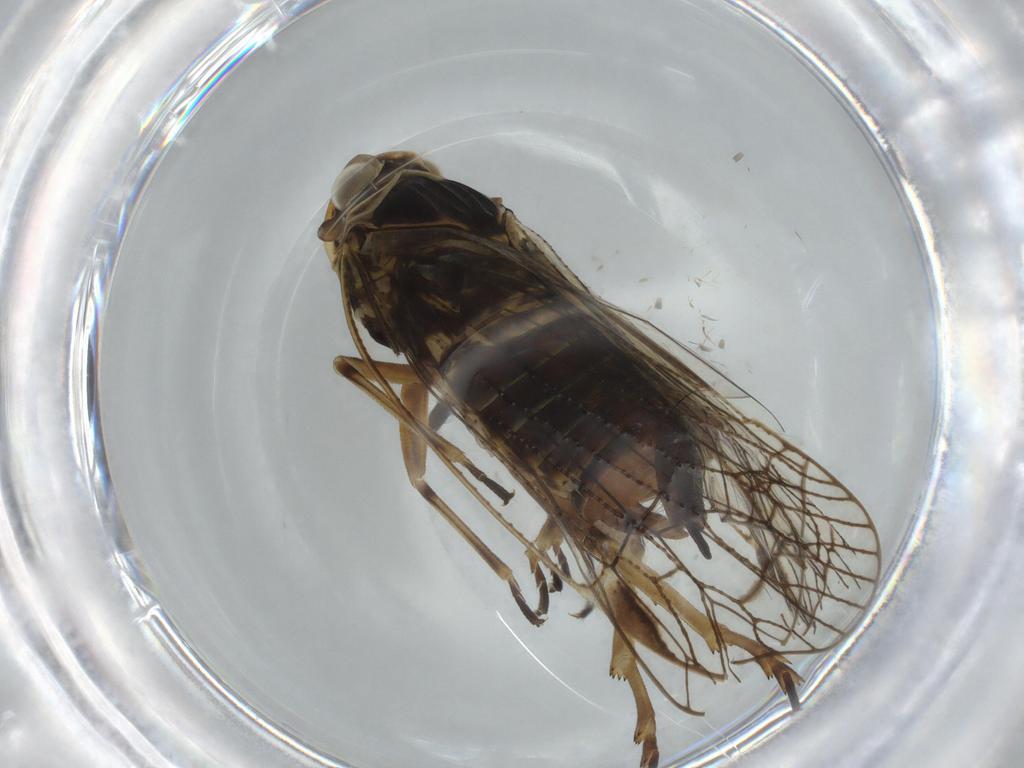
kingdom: Animalia
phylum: Arthropoda
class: Insecta
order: Hemiptera
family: Cixiidae
